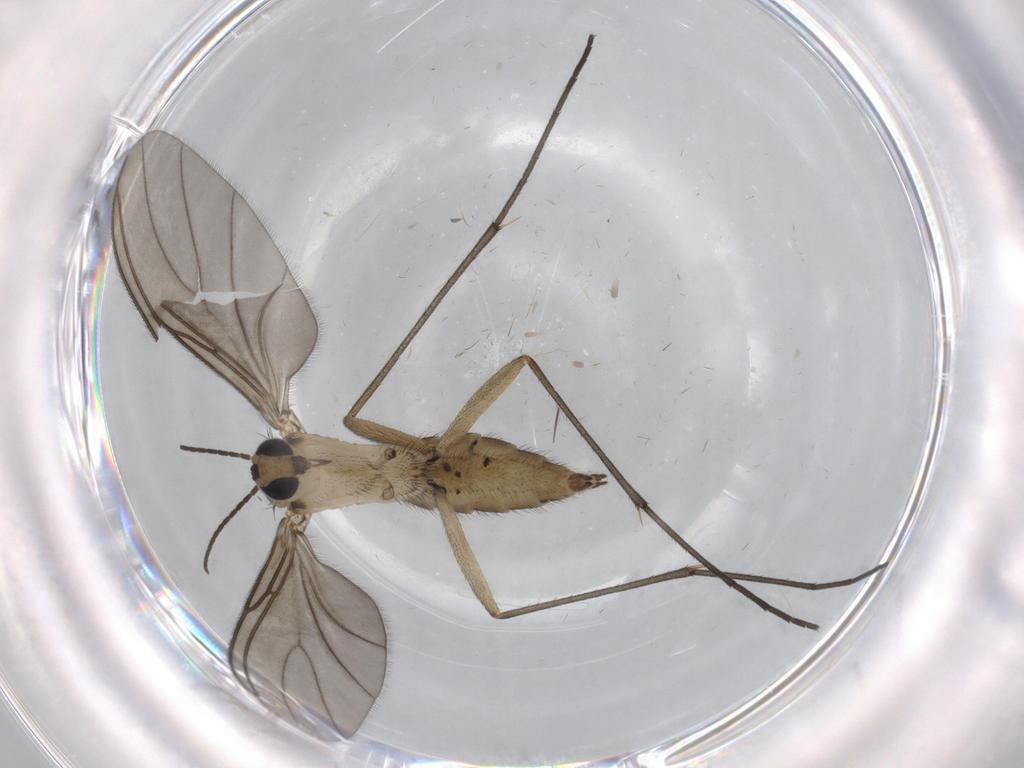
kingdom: Animalia
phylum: Arthropoda
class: Insecta
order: Diptera
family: Sciaridae
